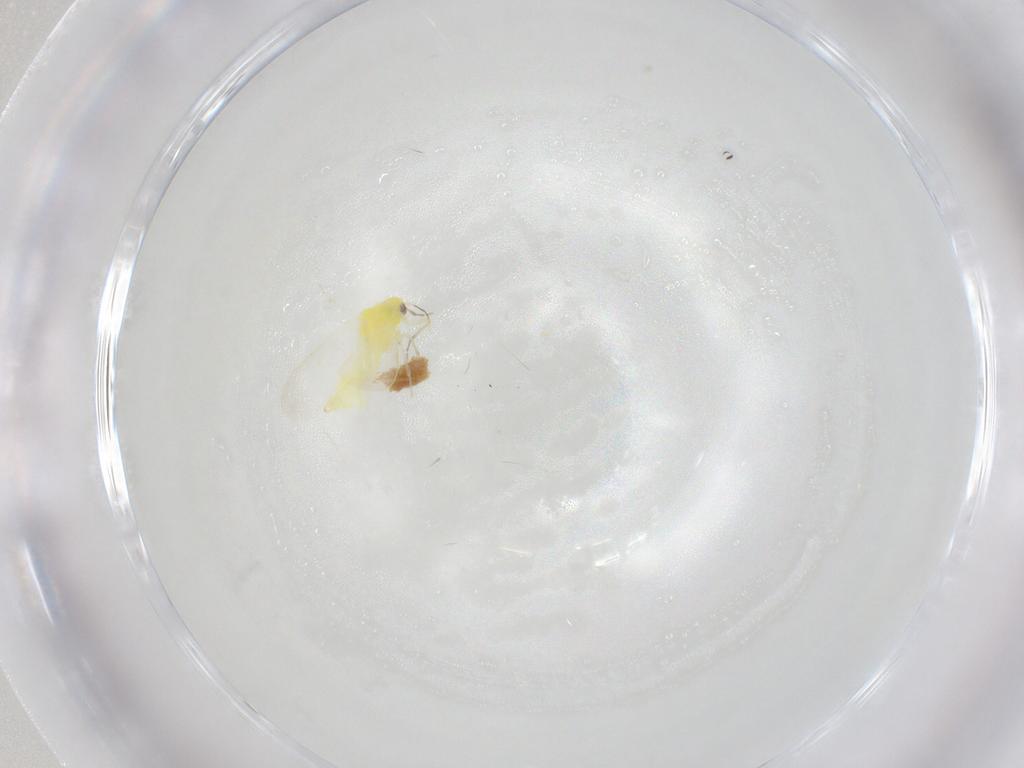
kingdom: Animalia
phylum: Arthropoda
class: Insecta
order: Hemiptera
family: Aleyrodidae
